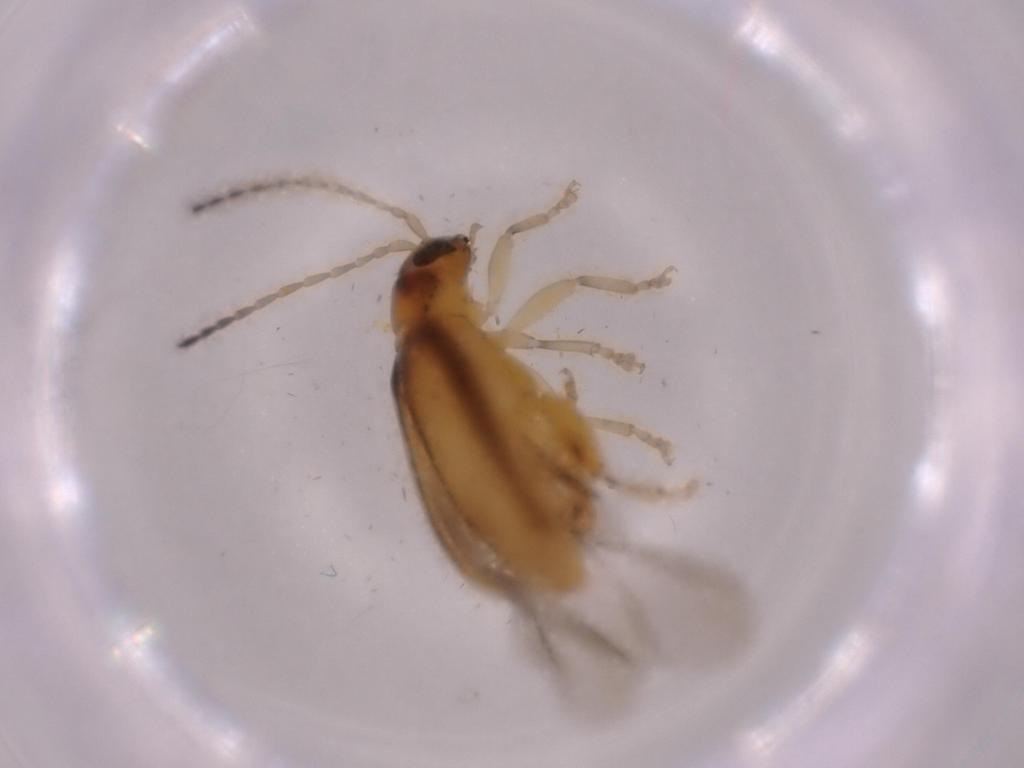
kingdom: Animalia
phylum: Arthropoda
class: Insecta
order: Coleoptera
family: Chrysomelidae
